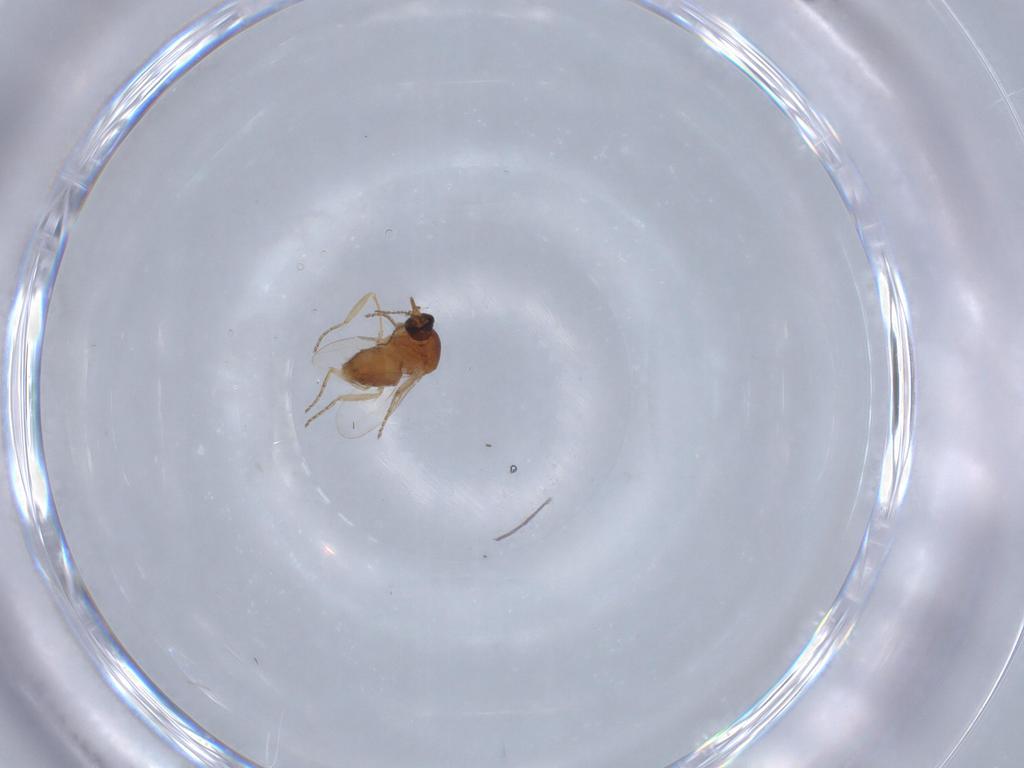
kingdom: Animalia
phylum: Arthropoda
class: Insecta
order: Diptera
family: Ceratopogonidae
